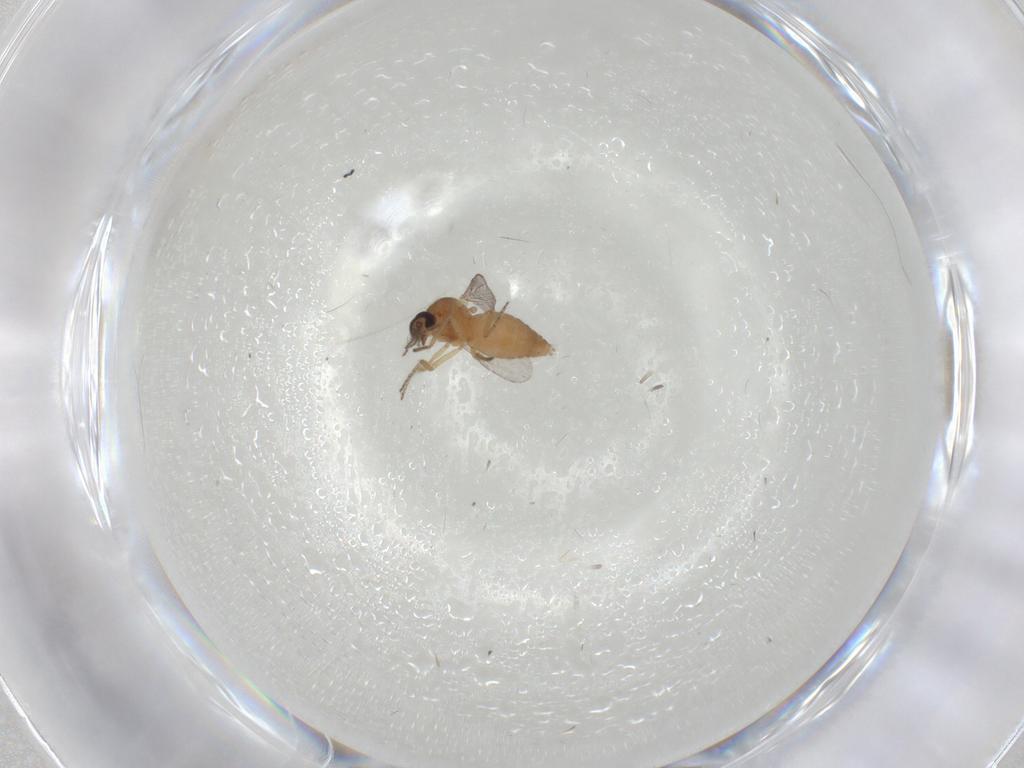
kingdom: Animalia
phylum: Arthropoda
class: Insecta
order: Diptera
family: Ceratopogonidae
